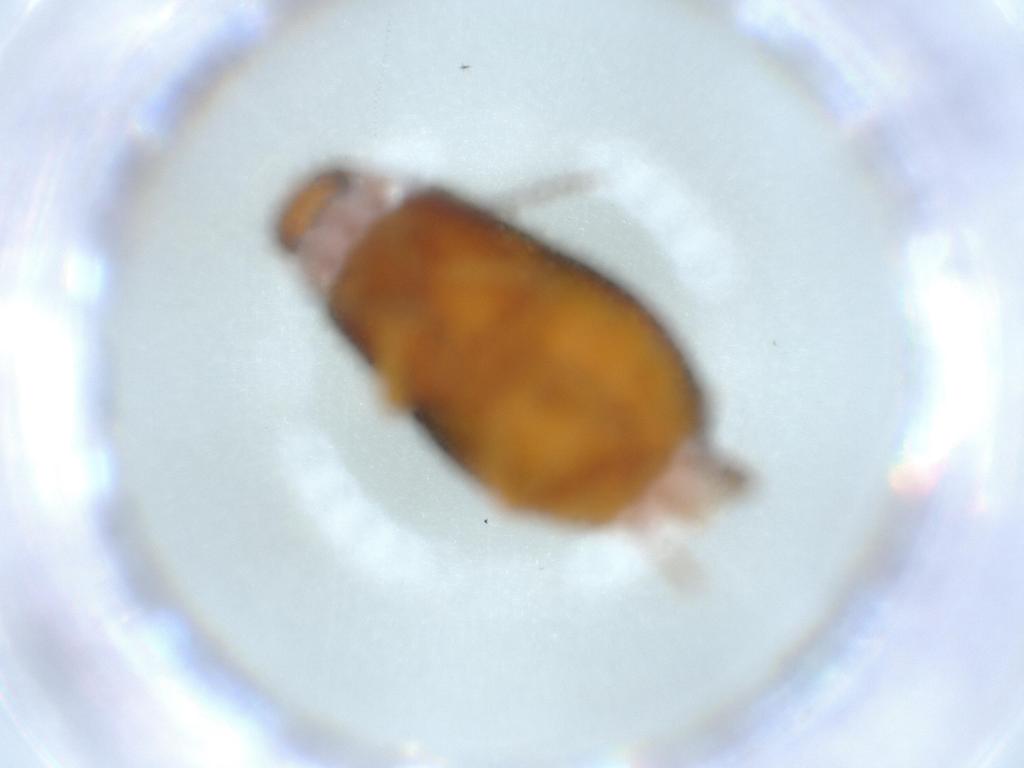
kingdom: Animalia
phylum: Arthropoda
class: Insecta
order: Coleoptera
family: Scraptiidae
